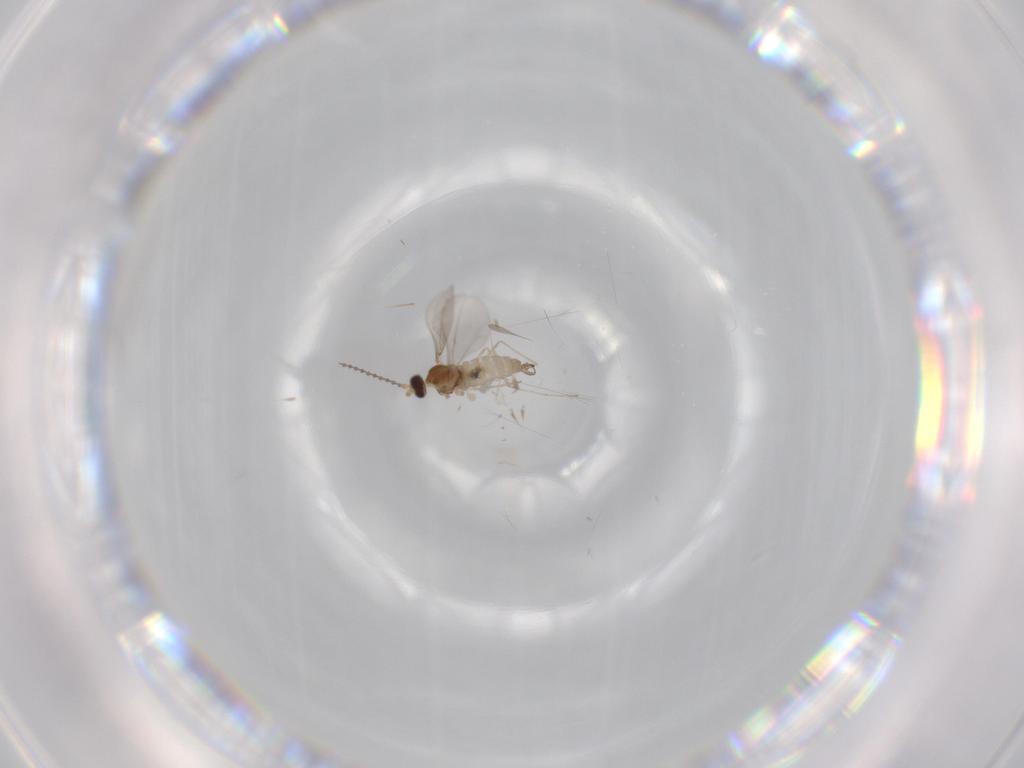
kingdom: Animalia
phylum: Arthropoda
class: Insecta
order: Diptera
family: Cecidomyiidae
